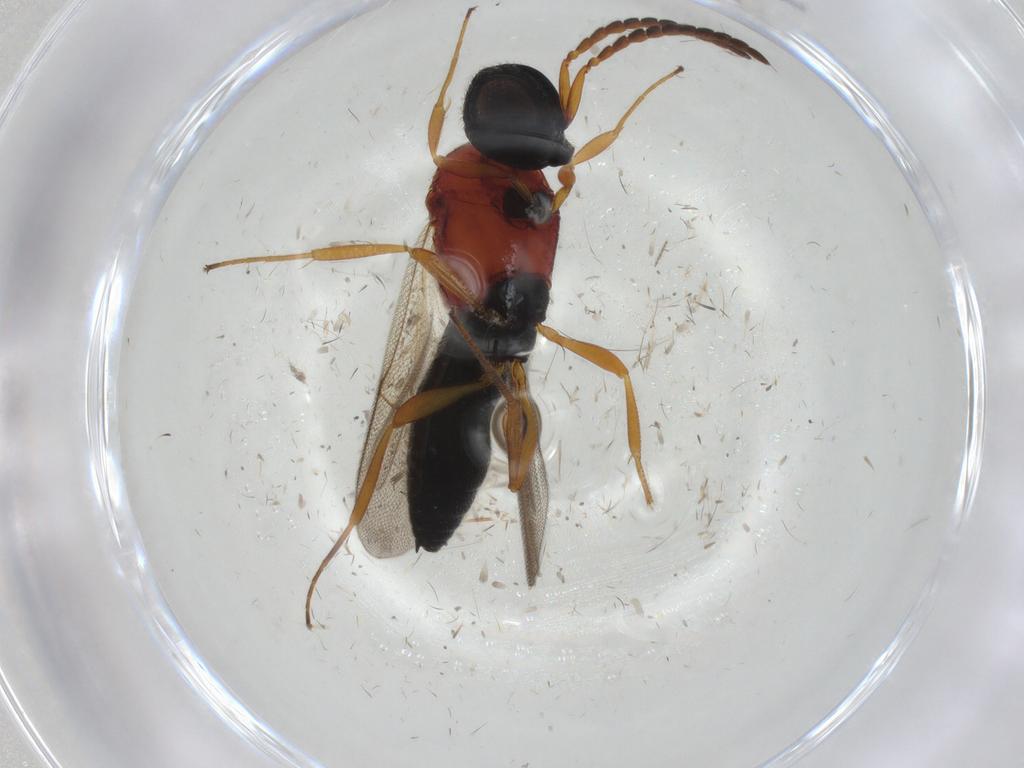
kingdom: Animalia
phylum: Arthropoda
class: Insecta
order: Hymenoptera
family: Scelionidae
